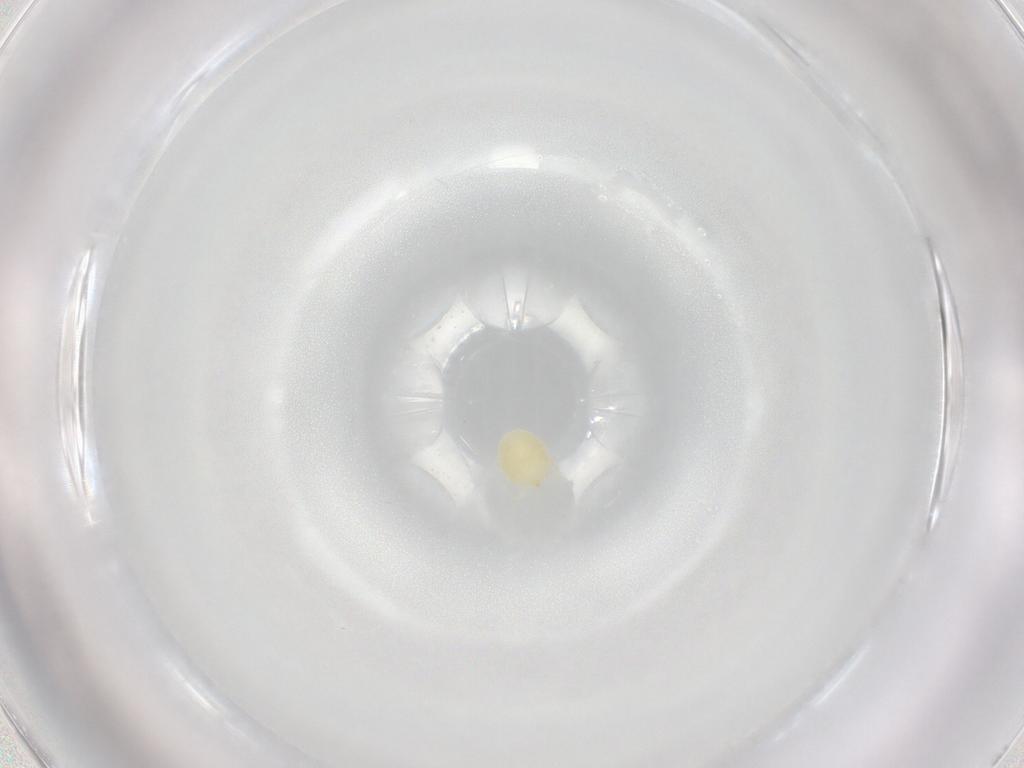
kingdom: Animalia
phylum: Arthropoda
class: Arachnida
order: Trombidiformes
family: Hydryphantidae
